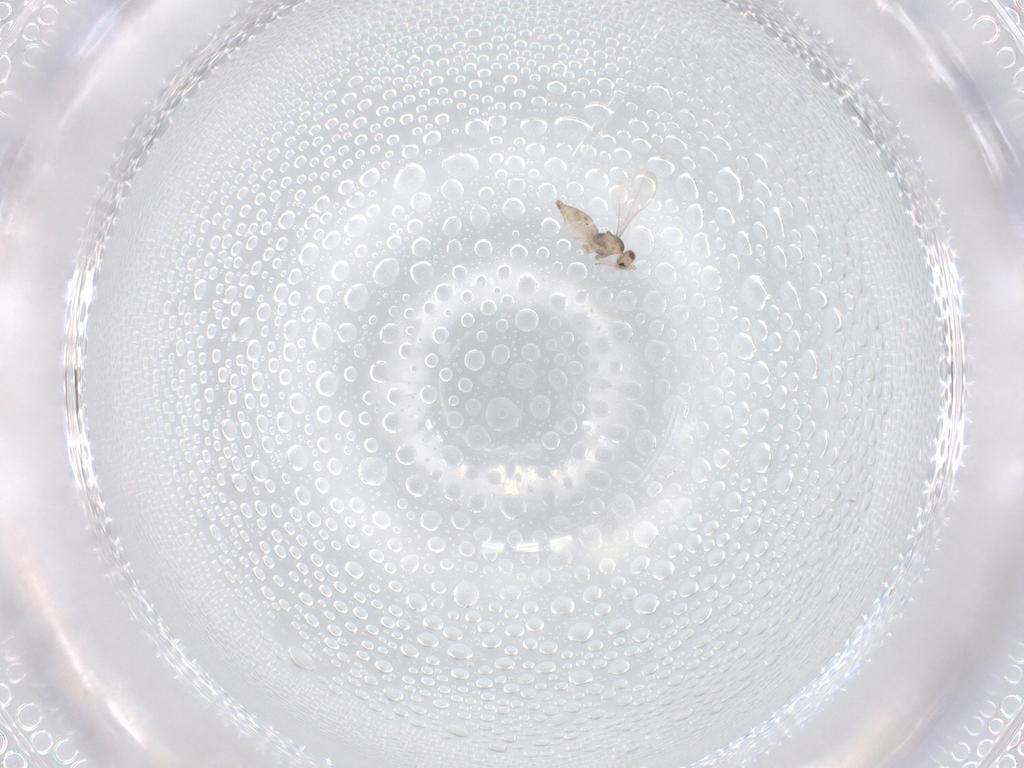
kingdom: Animalia
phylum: Arthropoda
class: Insecta
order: Diptera
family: Cecidomyiidae
